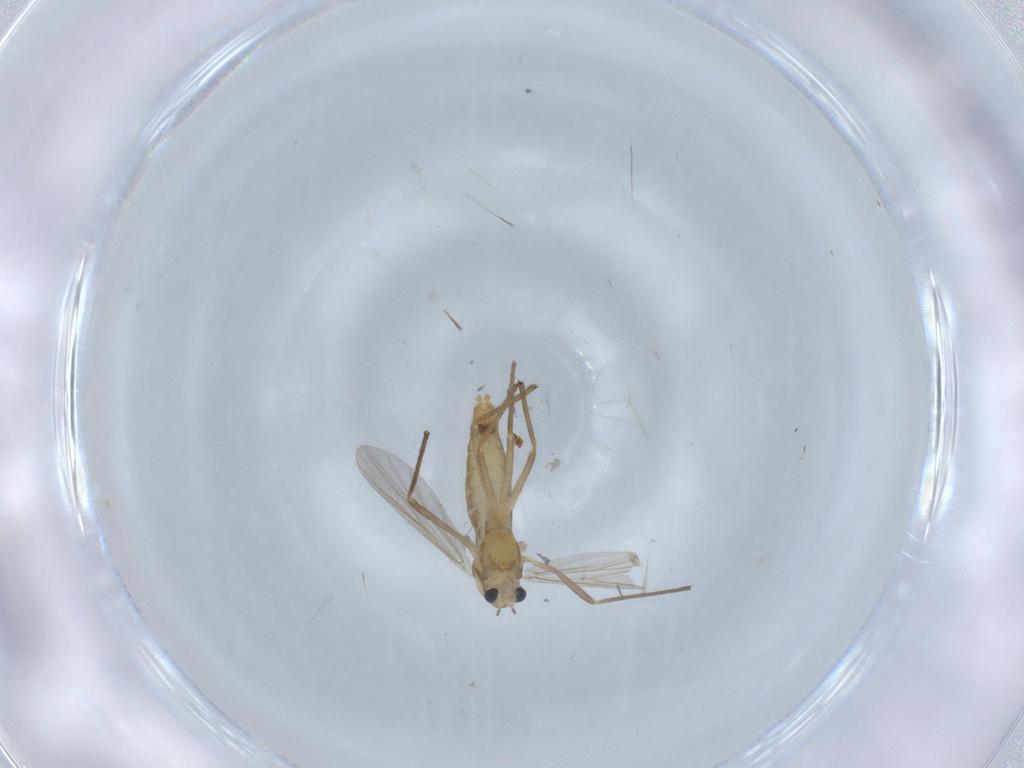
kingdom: Animalia
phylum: Arthropoda
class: Insecta
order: Diptera
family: Chironomidae
